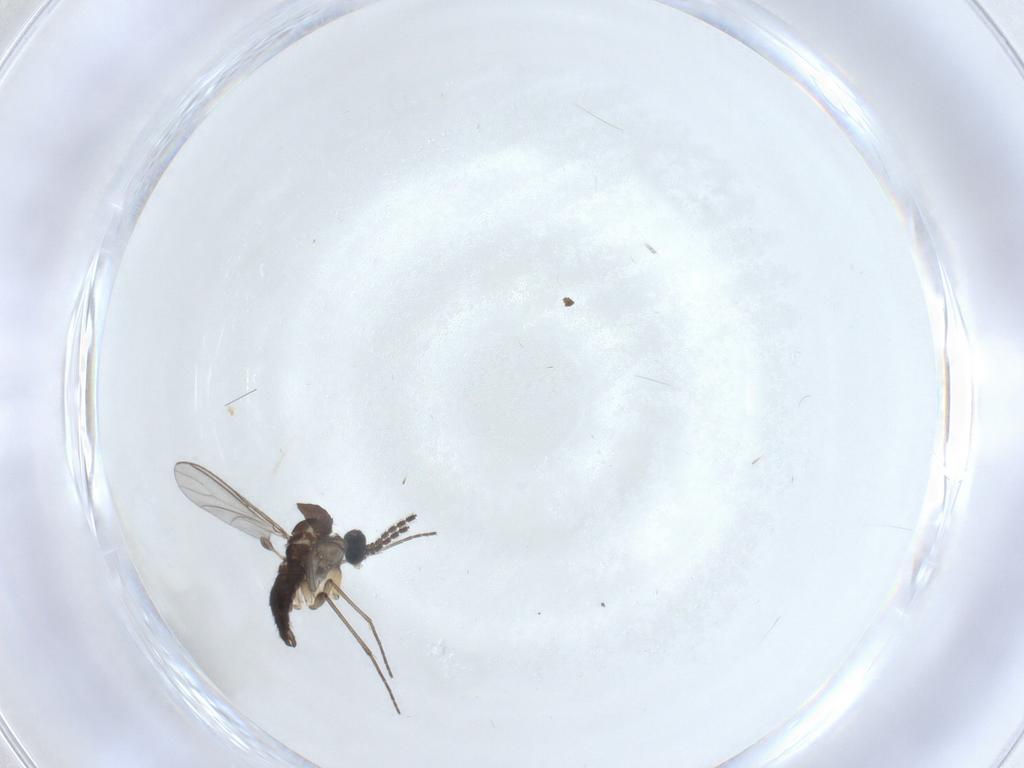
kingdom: Animalia
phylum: Arthropoda
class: Insecta
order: Diptera
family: Sciaridae
